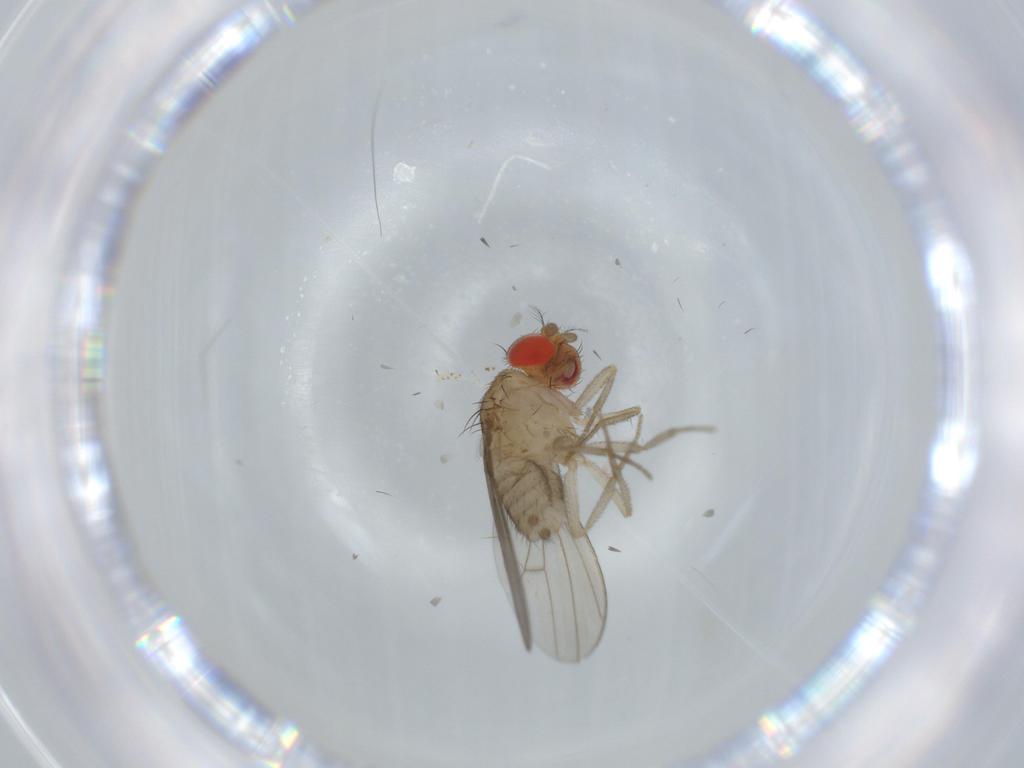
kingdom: Animalia
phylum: Arthropoda
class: Insecta
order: Diptera
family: Drosophilidae
